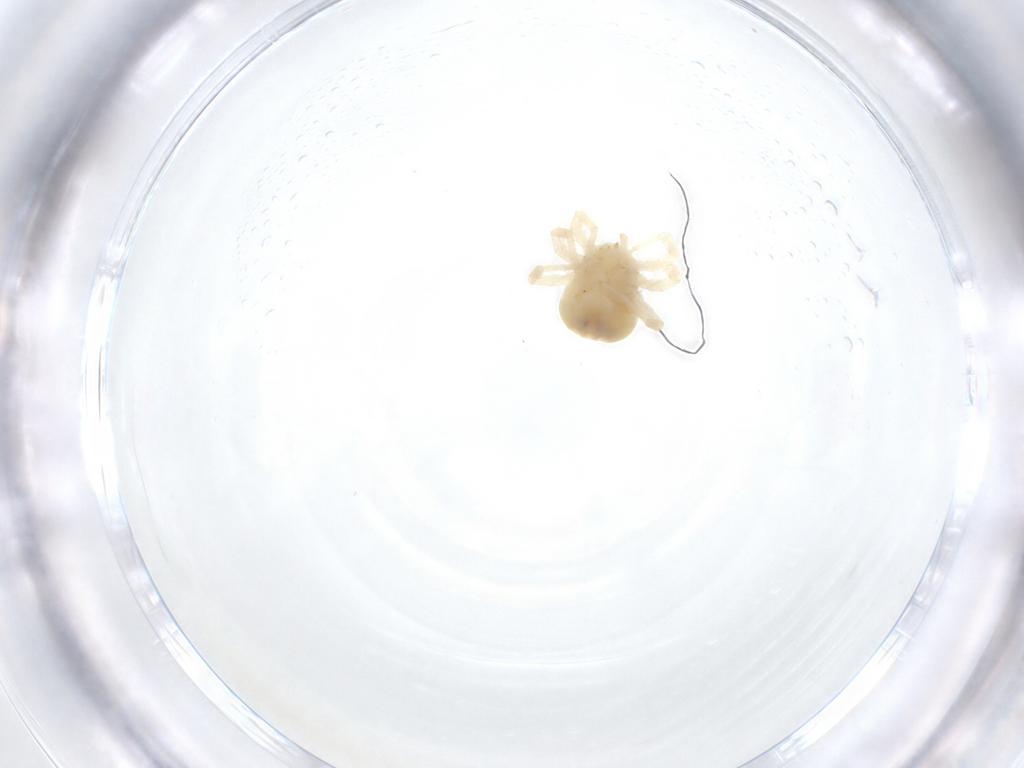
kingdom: Animalia
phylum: Arthropoda
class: Arachnida
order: Trombidiformes
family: Anystidae
